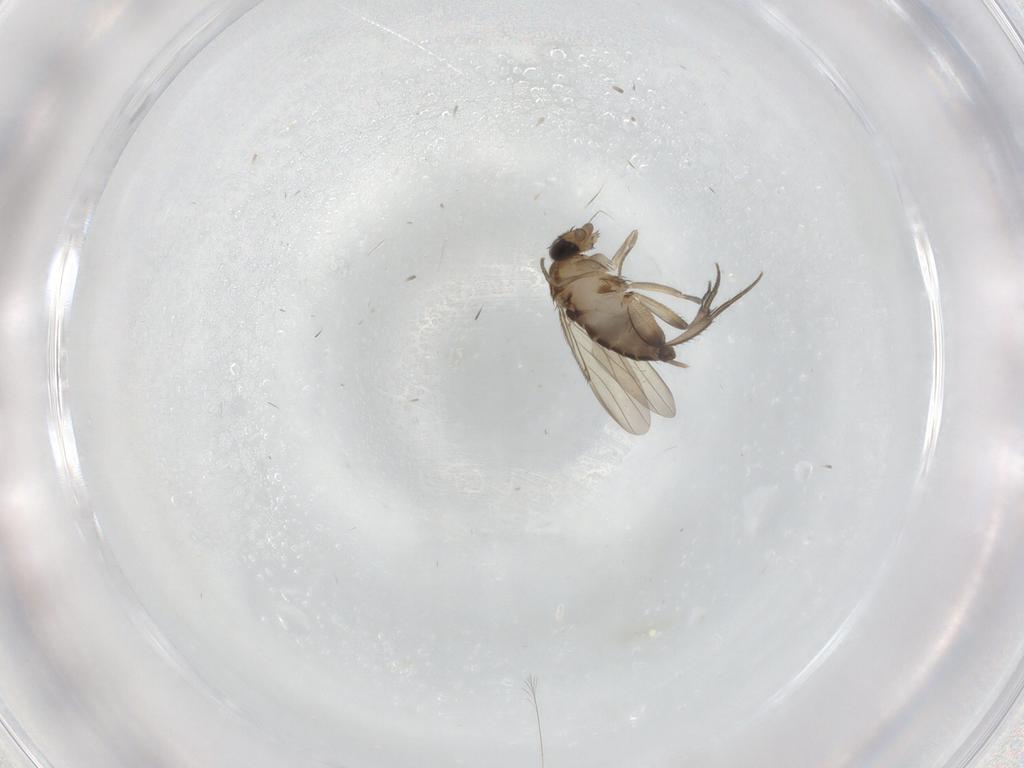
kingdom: Animalia
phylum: Arthropoda
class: Insecta
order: Diptera
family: Phoridae
